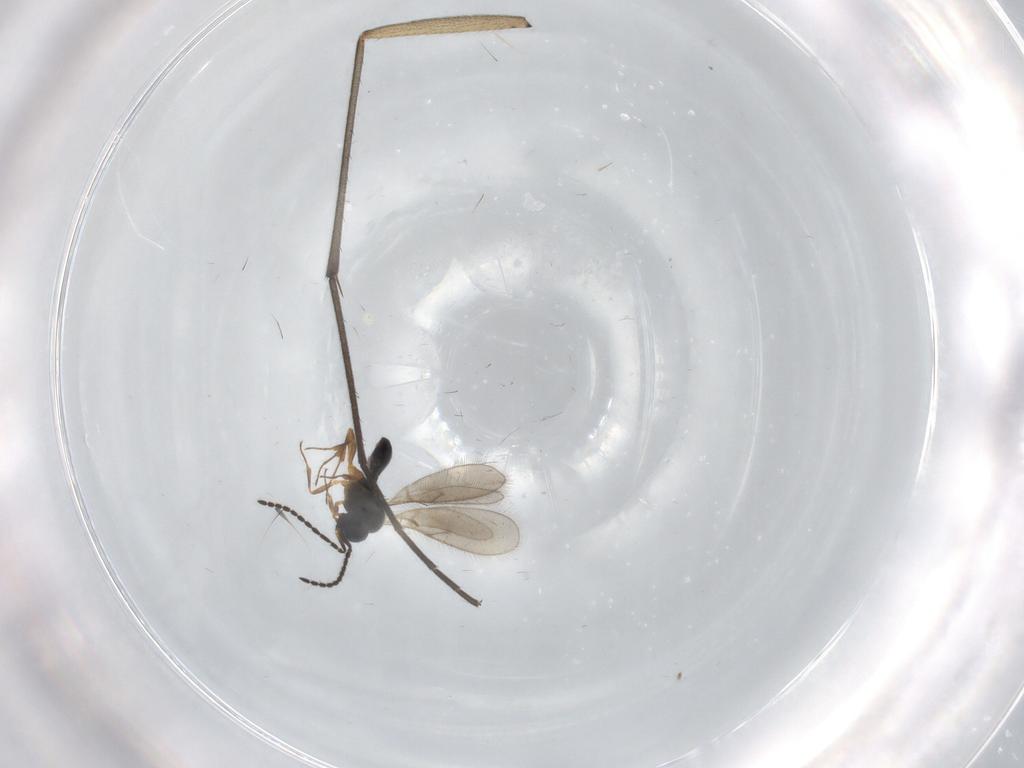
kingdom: Animalia
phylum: Arthropoda
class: Insecta
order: Hymenoptera
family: Scelionidae
